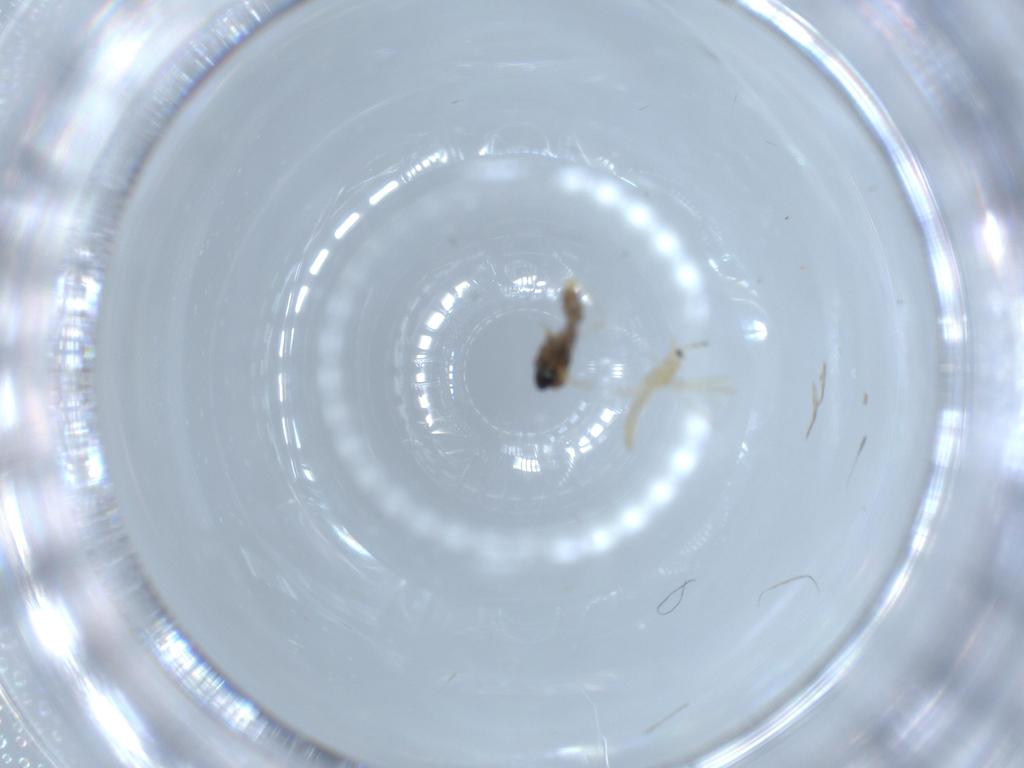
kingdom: Animalia
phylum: Arthropoda
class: Insecta
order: Diptera
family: Cecidomyiidae
